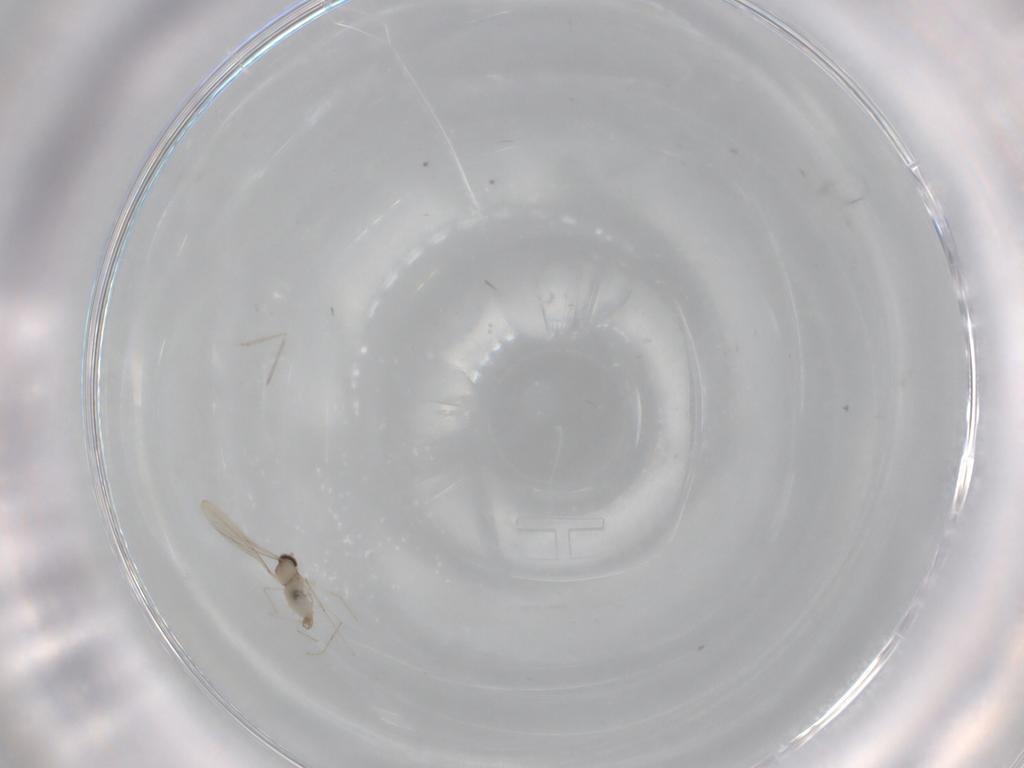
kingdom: Animalia
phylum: Arthropoda
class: Insecta
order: Diptera
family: Cecidomyiidae
